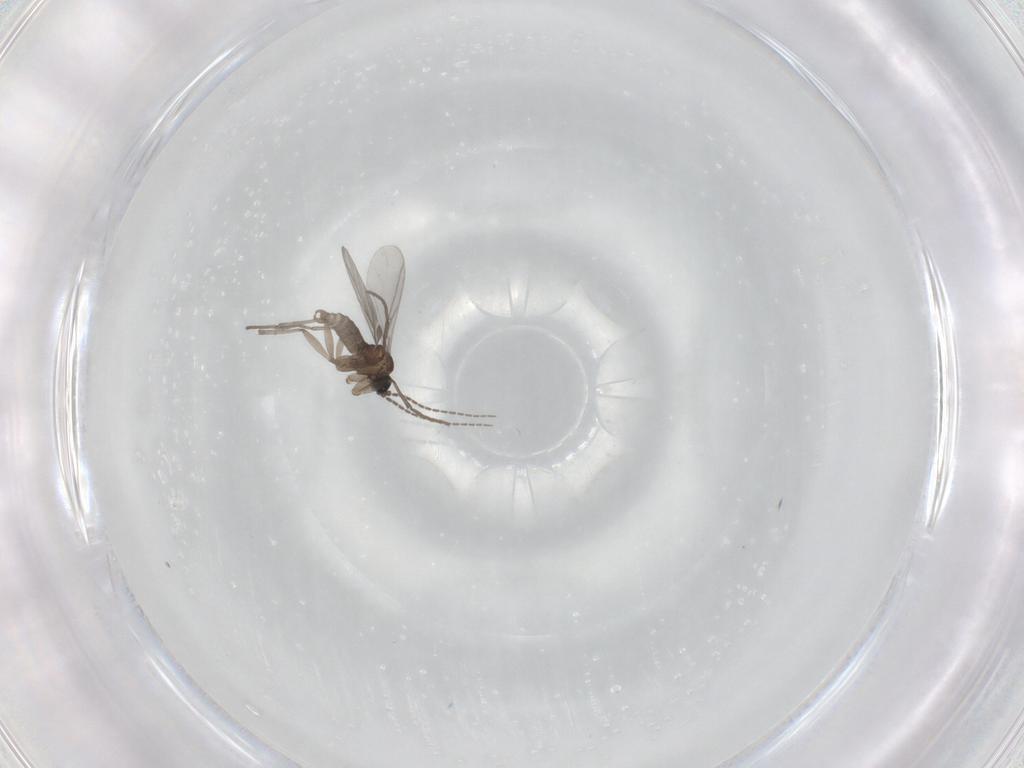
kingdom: Animalia
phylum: Arthropoda
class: Insecta
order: Diptera
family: Sciaridae
